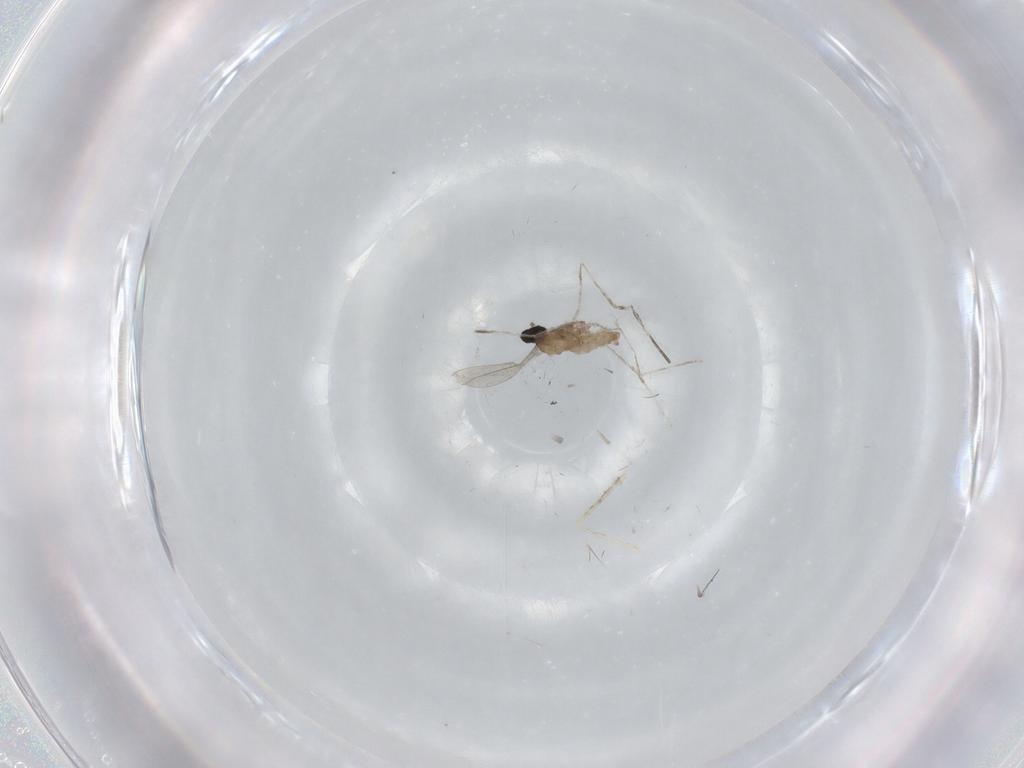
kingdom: Animalia
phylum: Arthropoda
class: Insecta
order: Diptera
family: Cecidomyiidae
